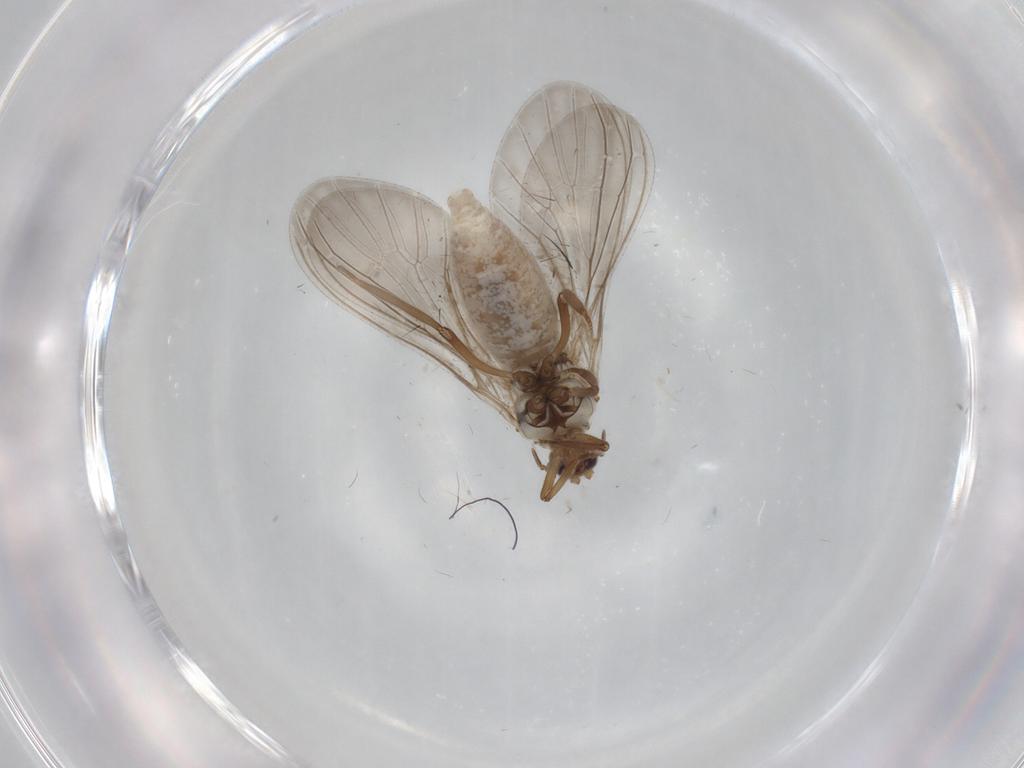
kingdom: Animalia
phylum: Arthropoda
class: Insecta
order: Neuroptera
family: Coniopterygidae
